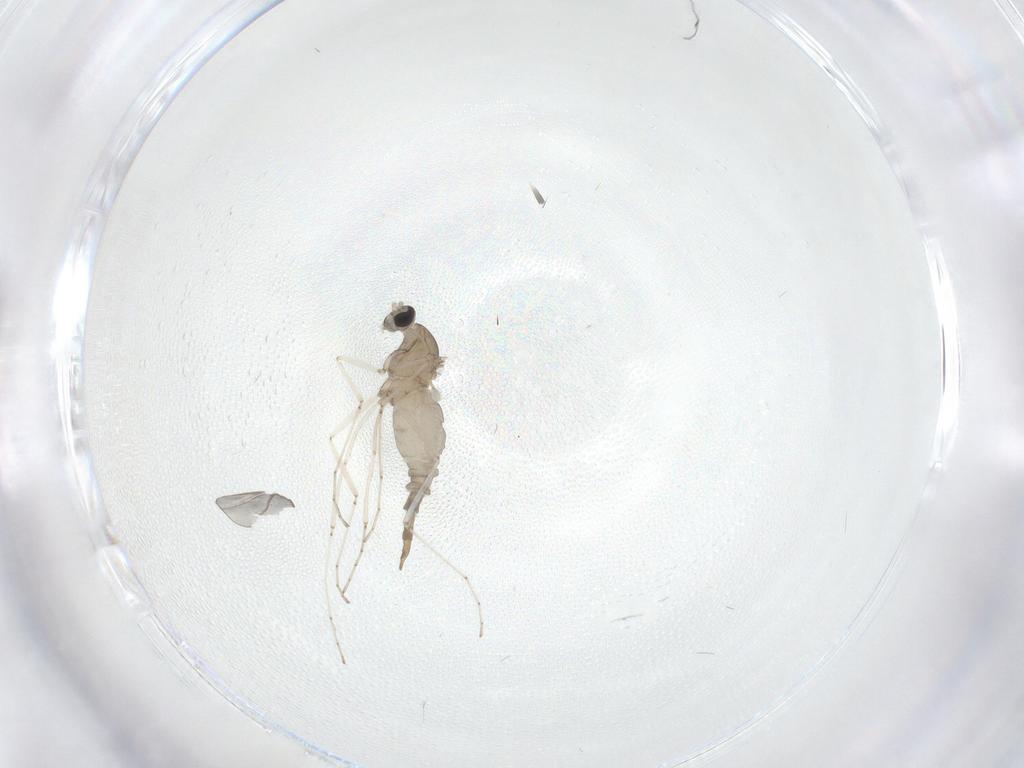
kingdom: Animalia
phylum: Arthropoda
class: Insecta
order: Diptera
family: Cecidomyiidae
